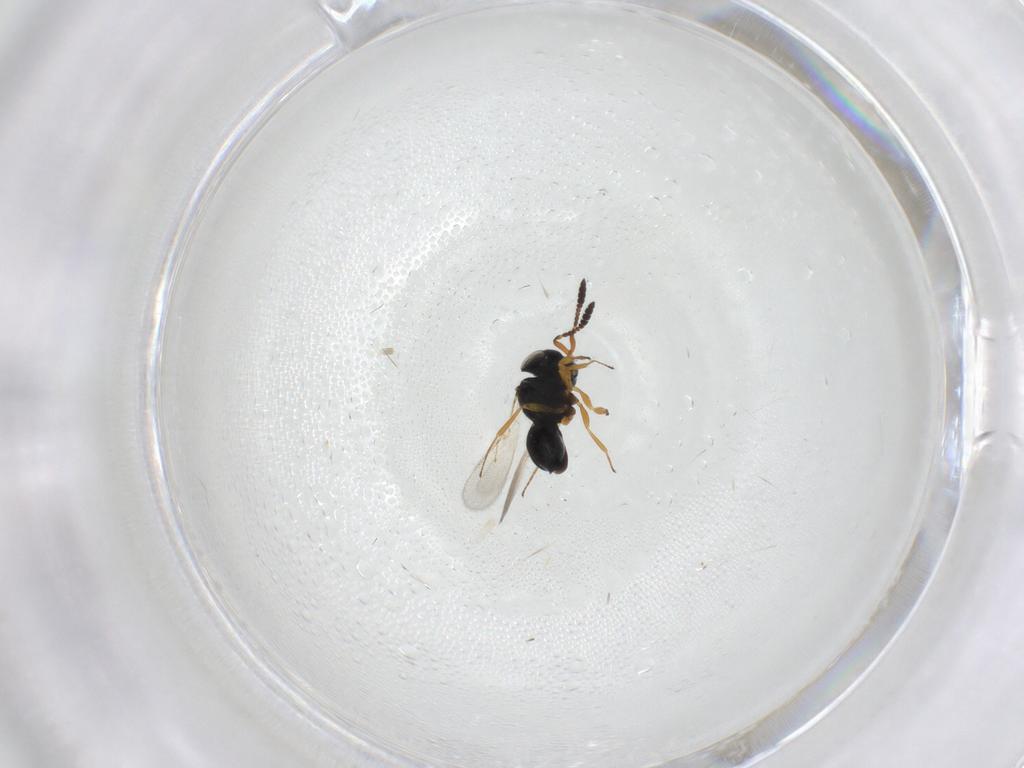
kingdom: Animalia
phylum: Arthropoda
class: Insecta
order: Hymenoptera
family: Scelionidae
